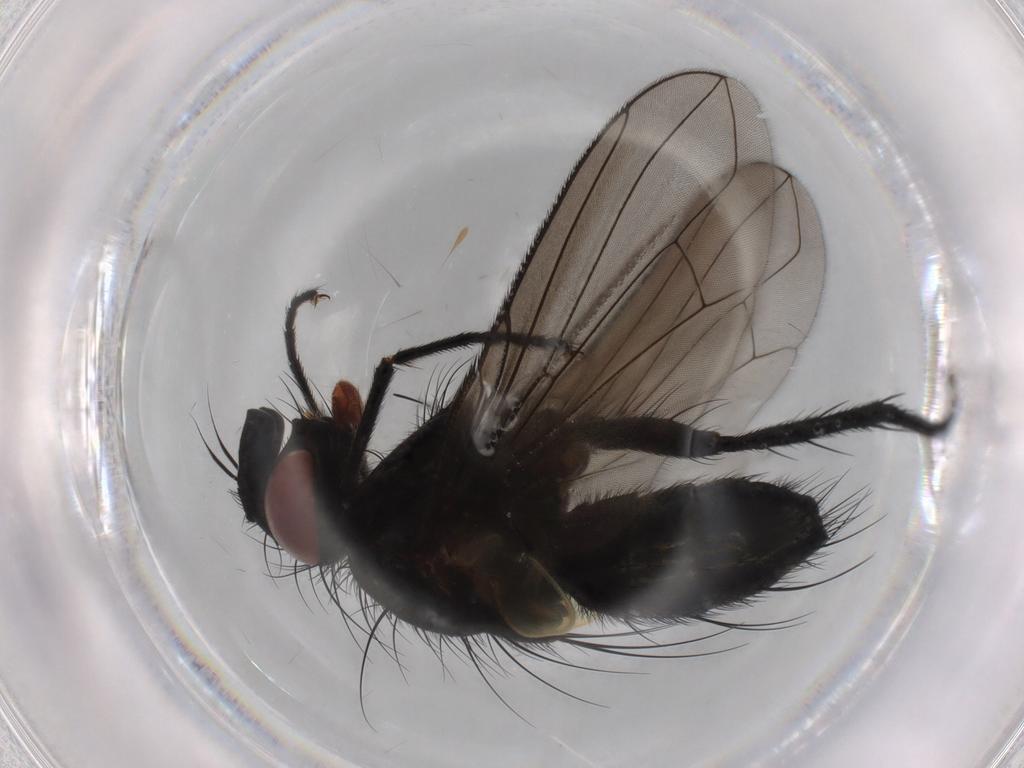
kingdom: Animalia
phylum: Arthropoda
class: Insecta
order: Diptera
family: Tachinidae
